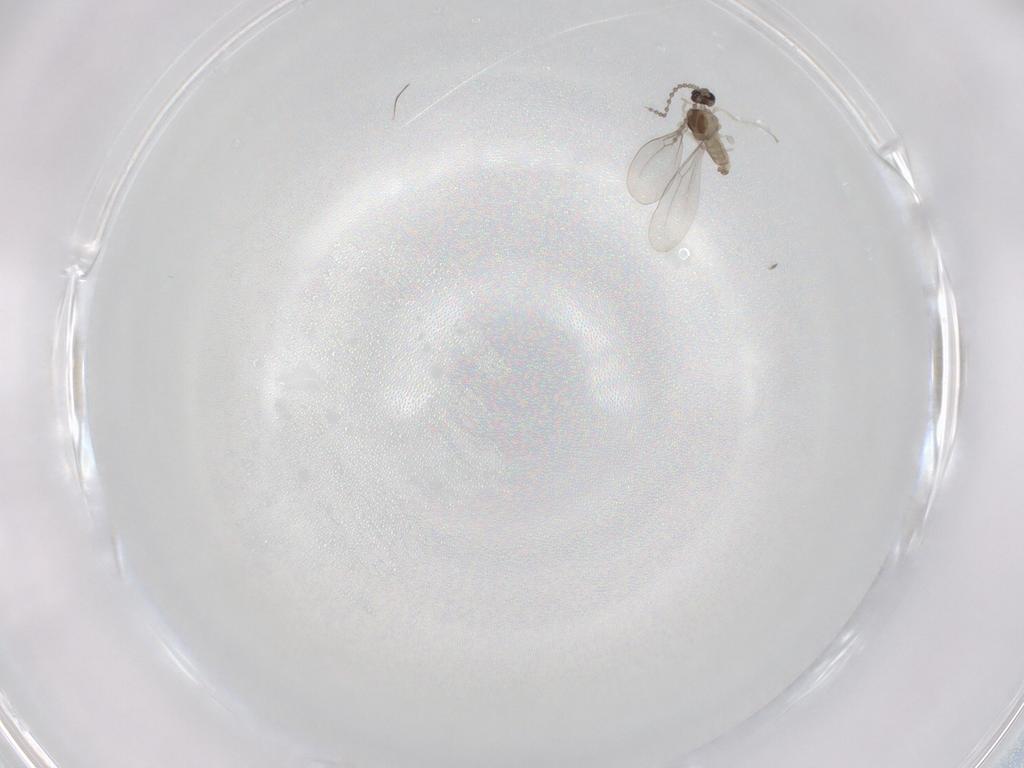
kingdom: Animalia
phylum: Arthropoda
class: Insecta
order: Diptera
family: Cecidomyiidae
